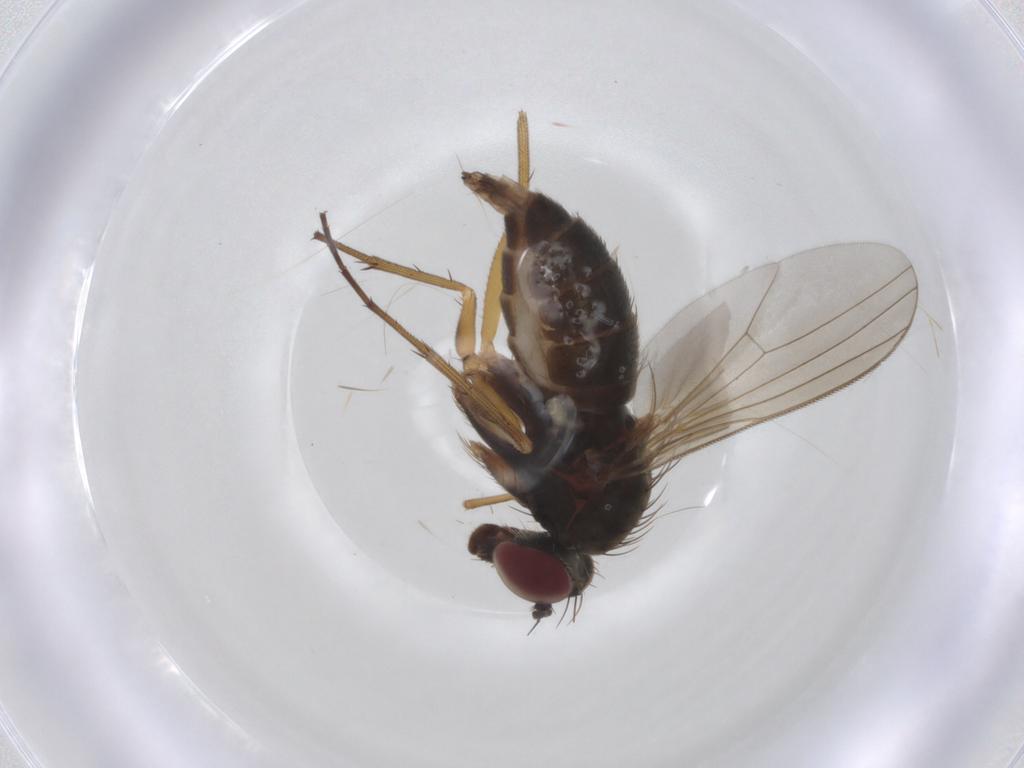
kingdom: Animalia
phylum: Arthropoda
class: Insecta
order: Diptera
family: Dolichopodidae
